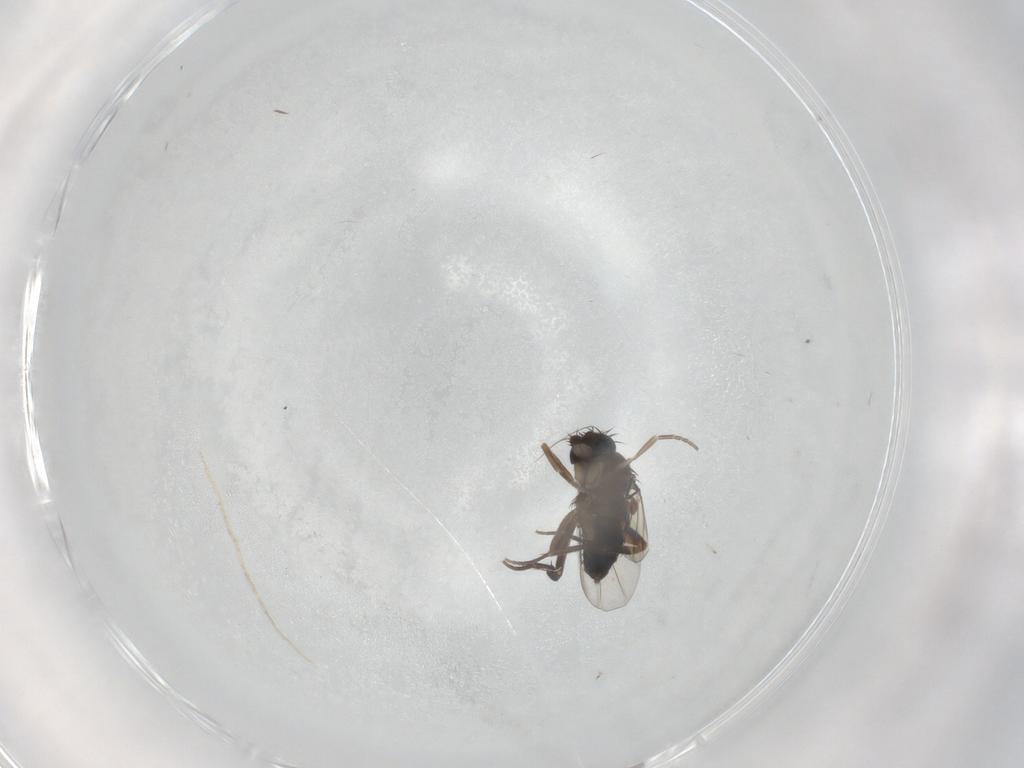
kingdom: Animalia
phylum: Arthropoda
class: Insecta
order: Diptera
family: Phoridae
